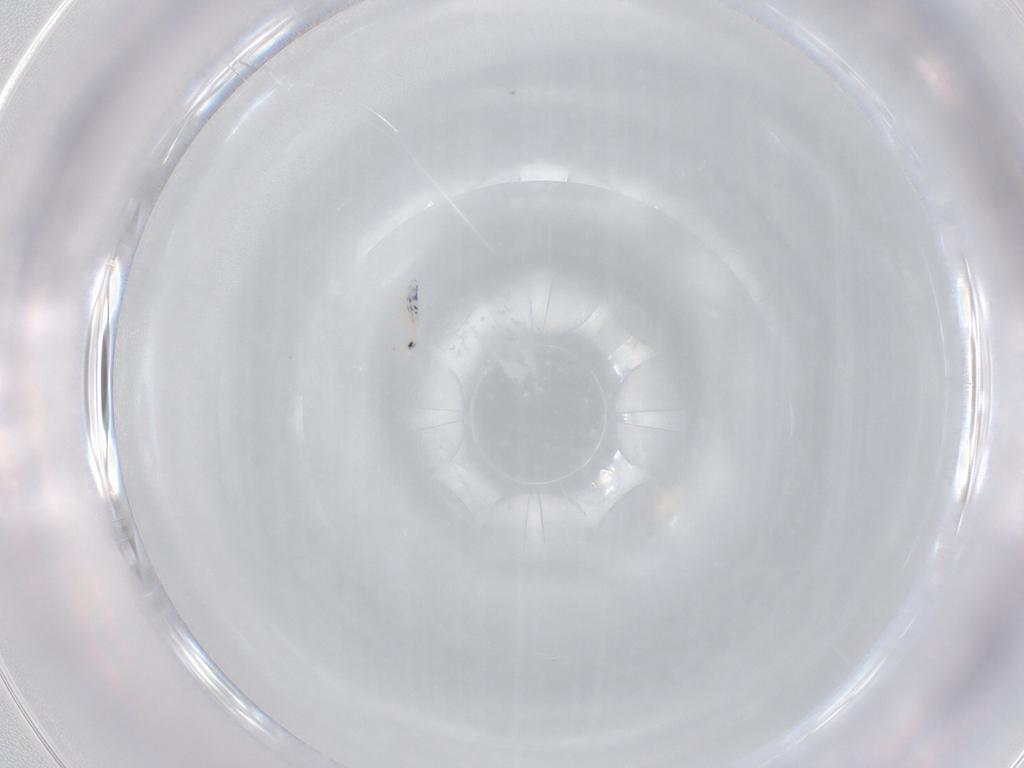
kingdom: Animalia
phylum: Arthropoda
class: Collembola
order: Entomobryomorpha
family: Entomobryidae
